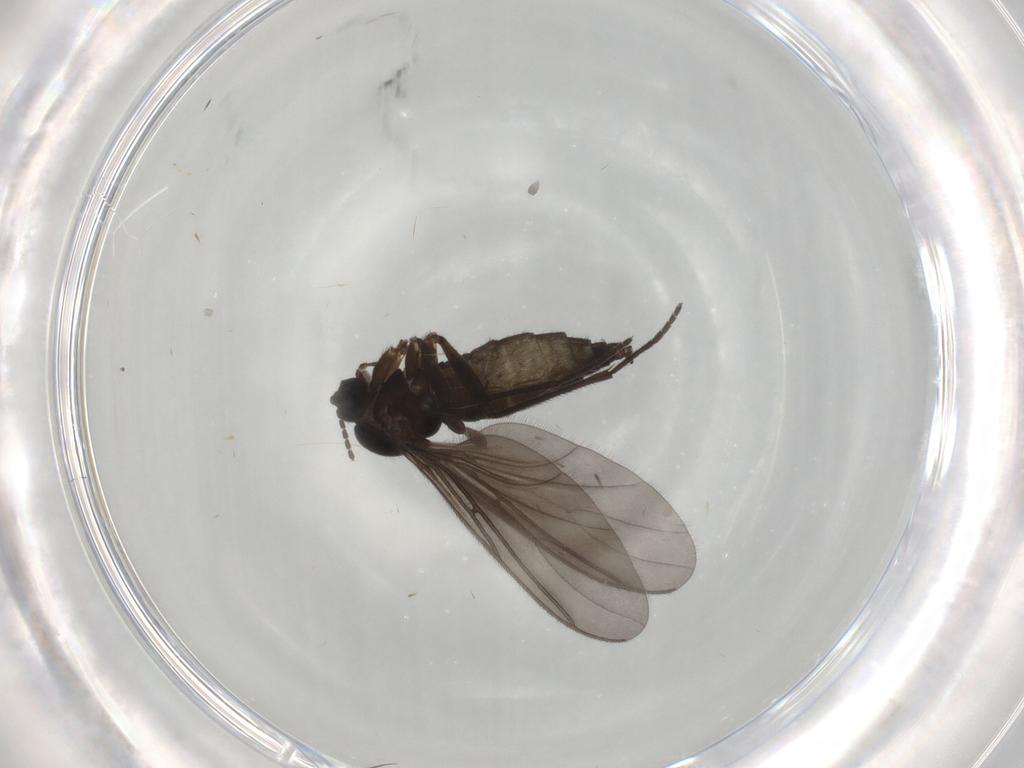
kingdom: Animalia
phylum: Arthropoda
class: Insecta
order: Diptera
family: Sciaridae
